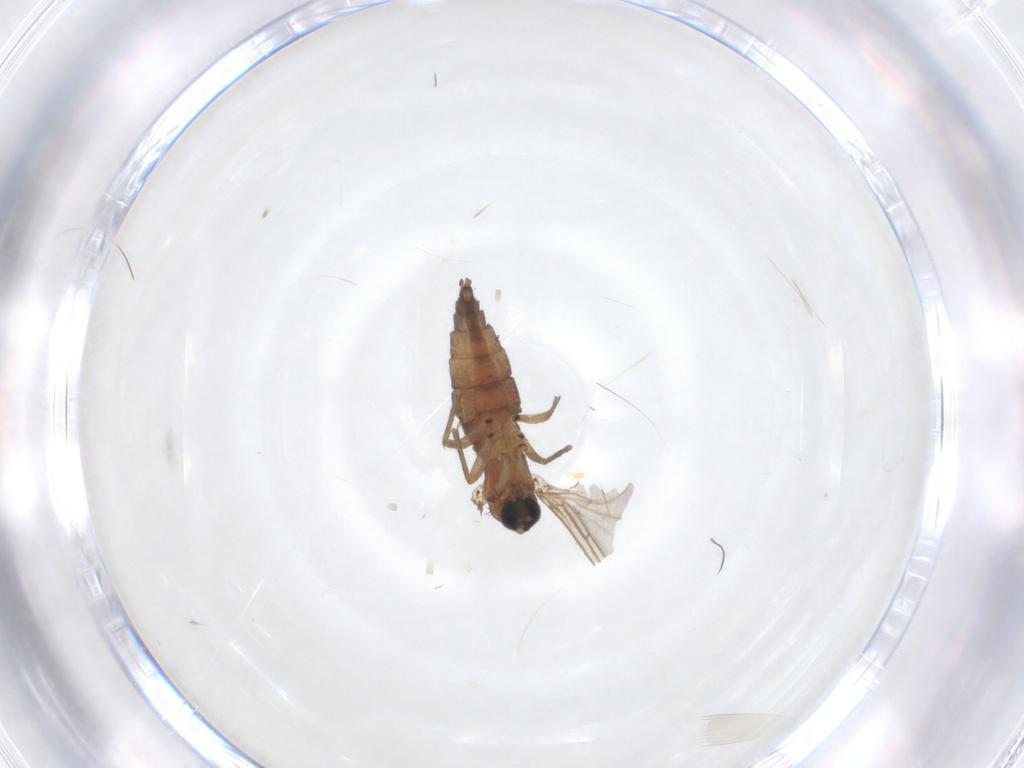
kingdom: Animalia
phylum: Arthropoda
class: Insecta
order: Diptera
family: Sciaridae
